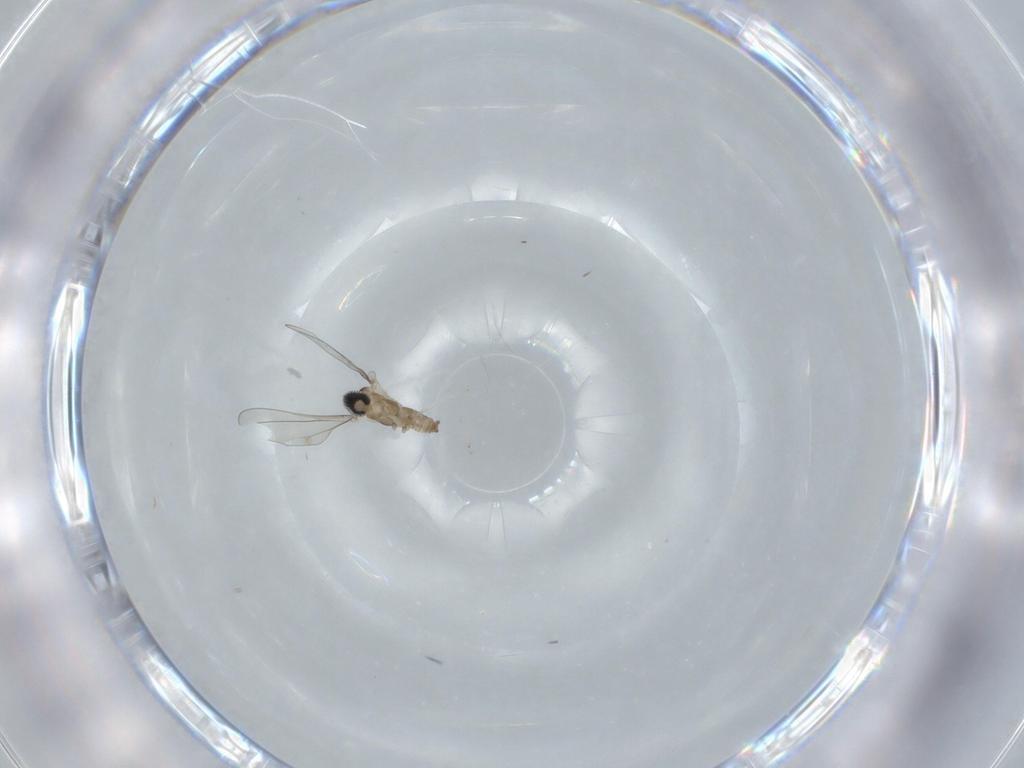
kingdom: Animalia
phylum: Arthropoda
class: Insecta
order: Diptera
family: Cecidomyiidae
